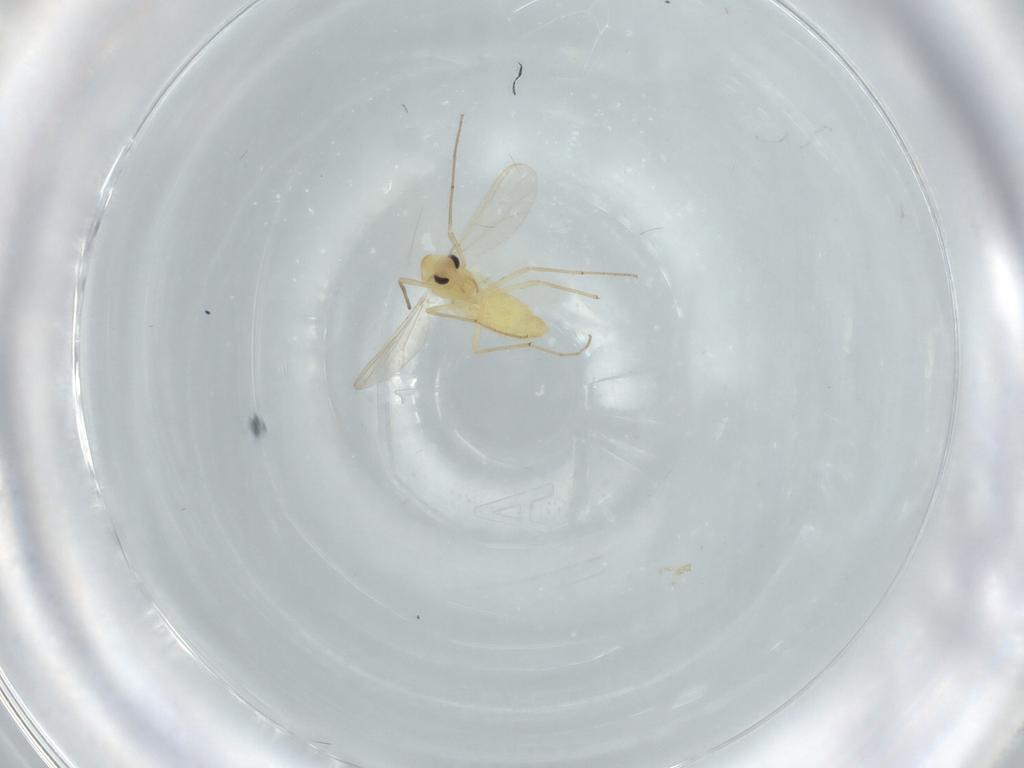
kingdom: Animalia
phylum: Arthropoda
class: Insecta
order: Diptera
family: Chironomidae
